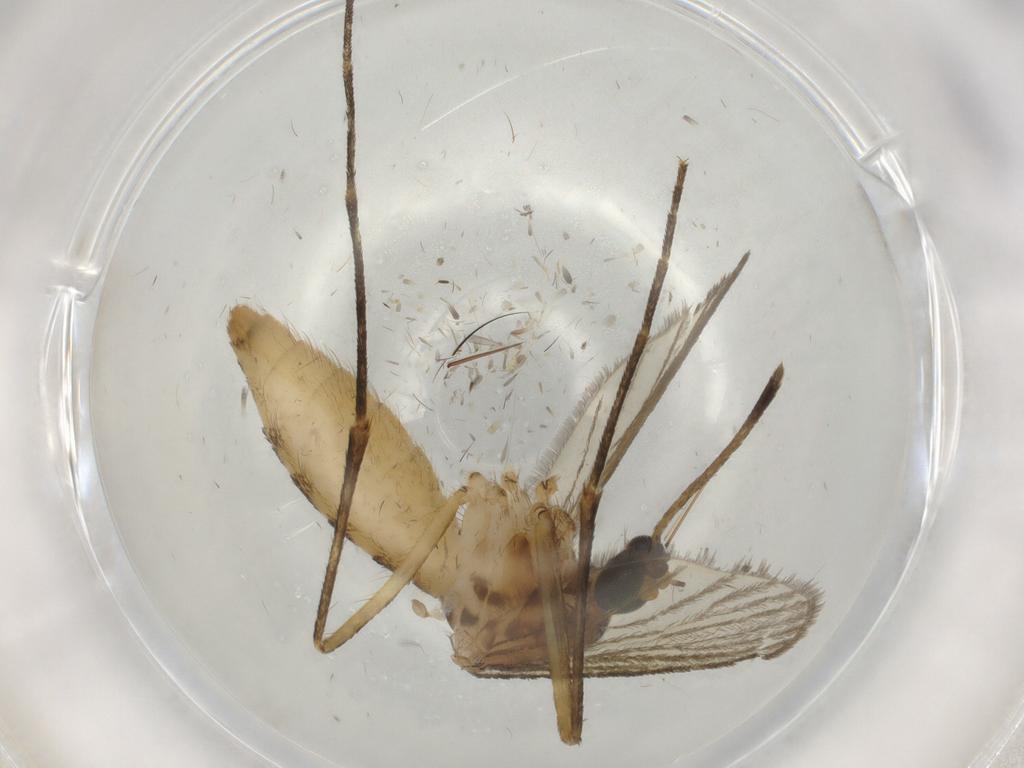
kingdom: Animalia
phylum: Arthropoda
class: Insecta
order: Diptera
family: Culicidae
